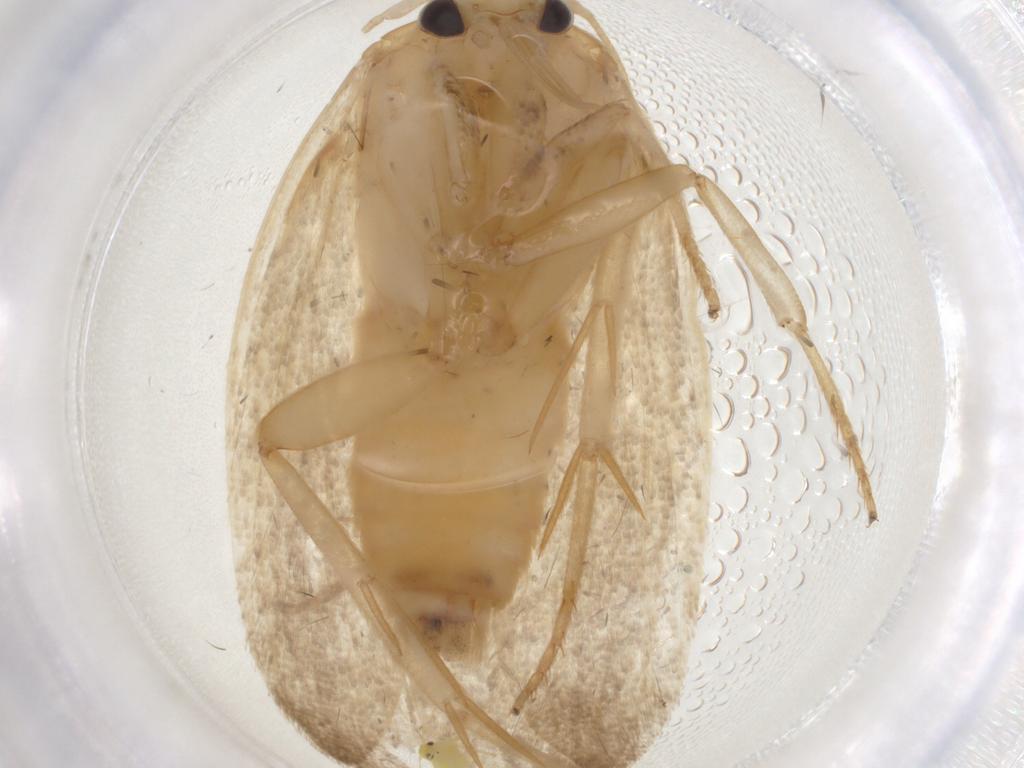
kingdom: Animalia
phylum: Arthropoda
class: Insecta
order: Lepidoptera
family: Depressariidae
